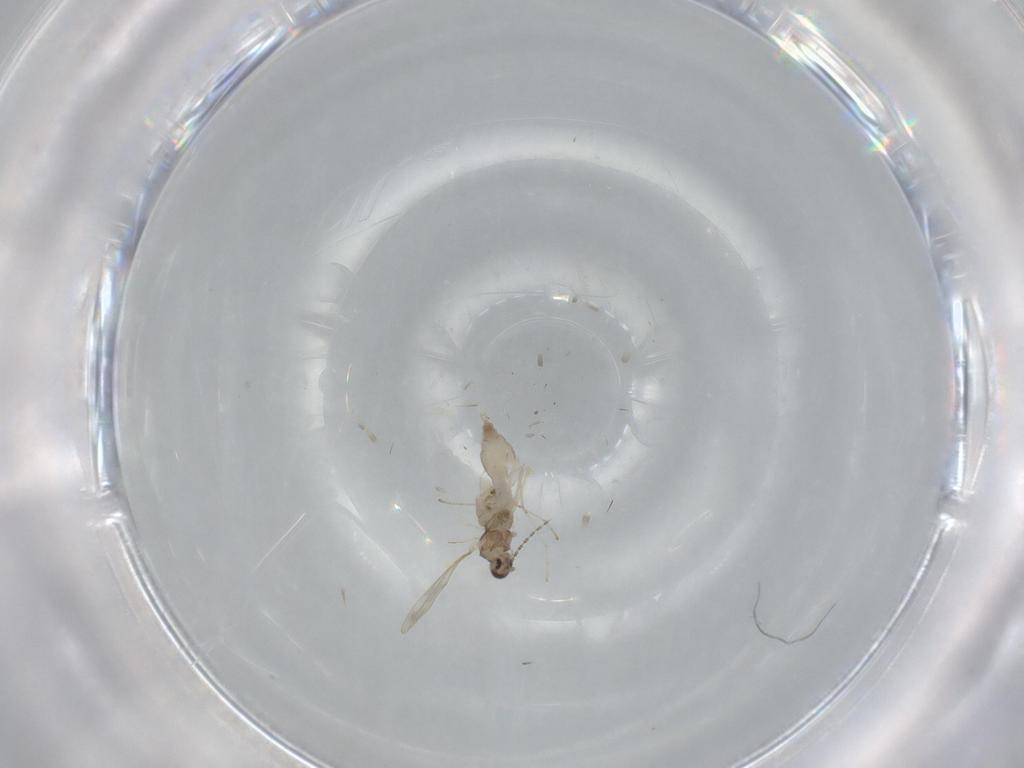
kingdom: Animalia
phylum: Arthropoda
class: Insecta
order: Diptera
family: Cecidomyiidae
